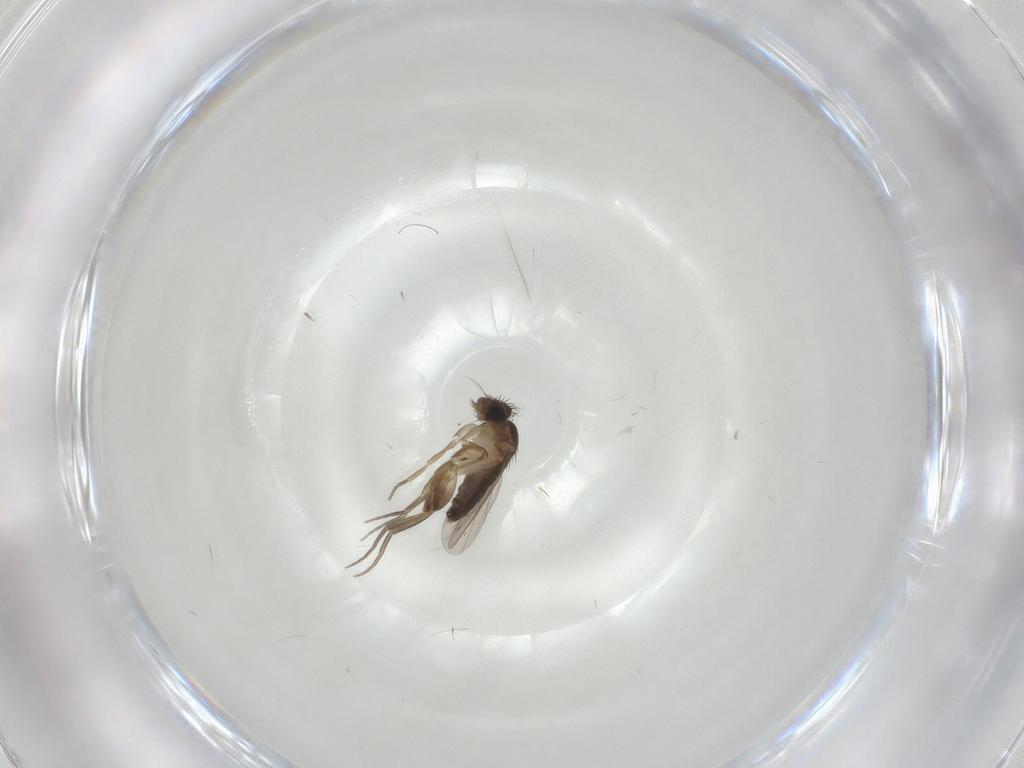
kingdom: Animalia
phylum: Arthropoda
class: Insecta
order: Diptera
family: Phoridae
